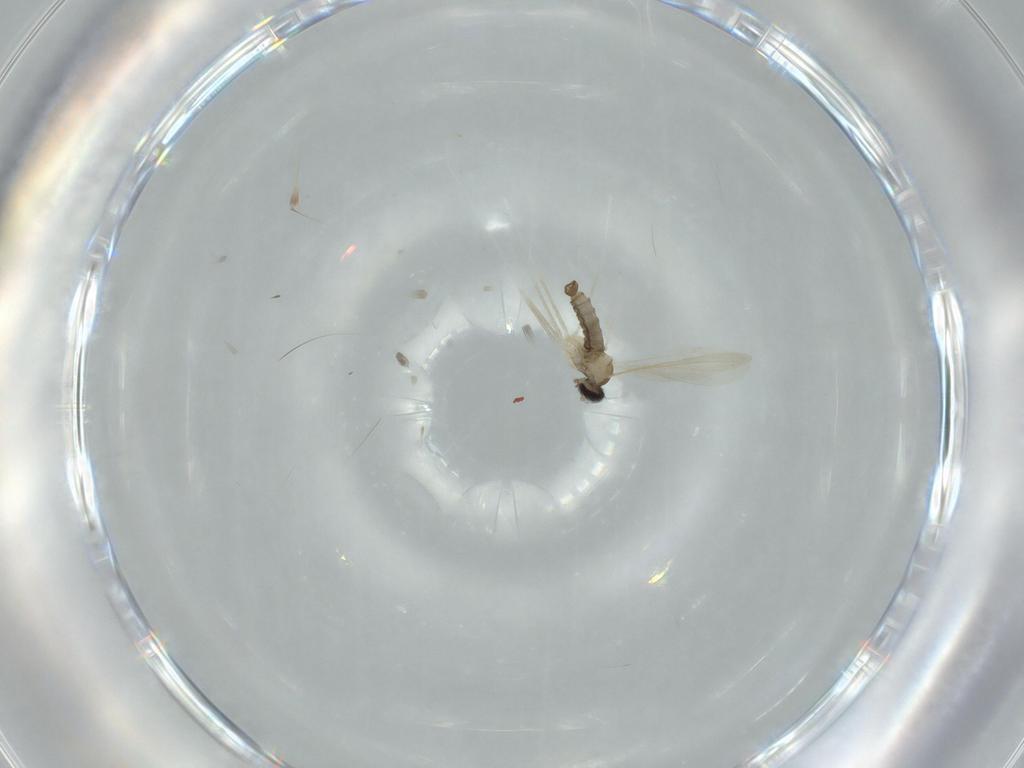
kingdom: Animalia
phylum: Arthropoda
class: Insecta
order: Diptera
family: Cecidomyiidae
